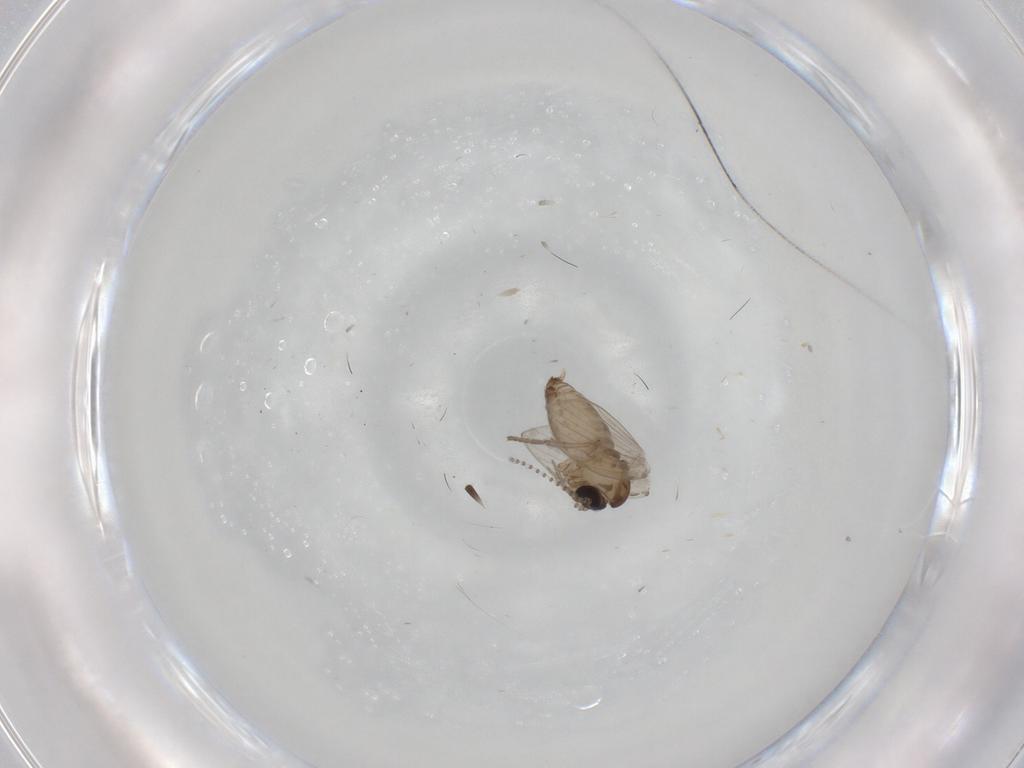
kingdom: Animalia
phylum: Arthropoda
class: Insecta
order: Diptera
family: Psychodidae
